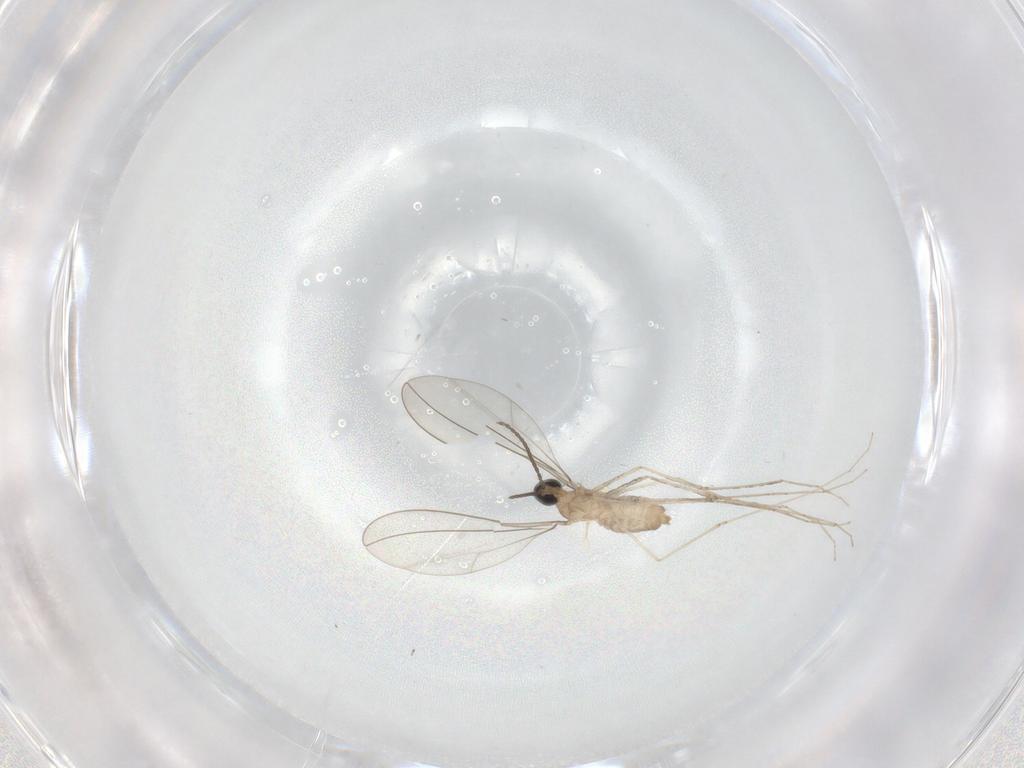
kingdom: Animalia
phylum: Arthropoda
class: Insecta
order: Diptera
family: Cecidomyiidae
